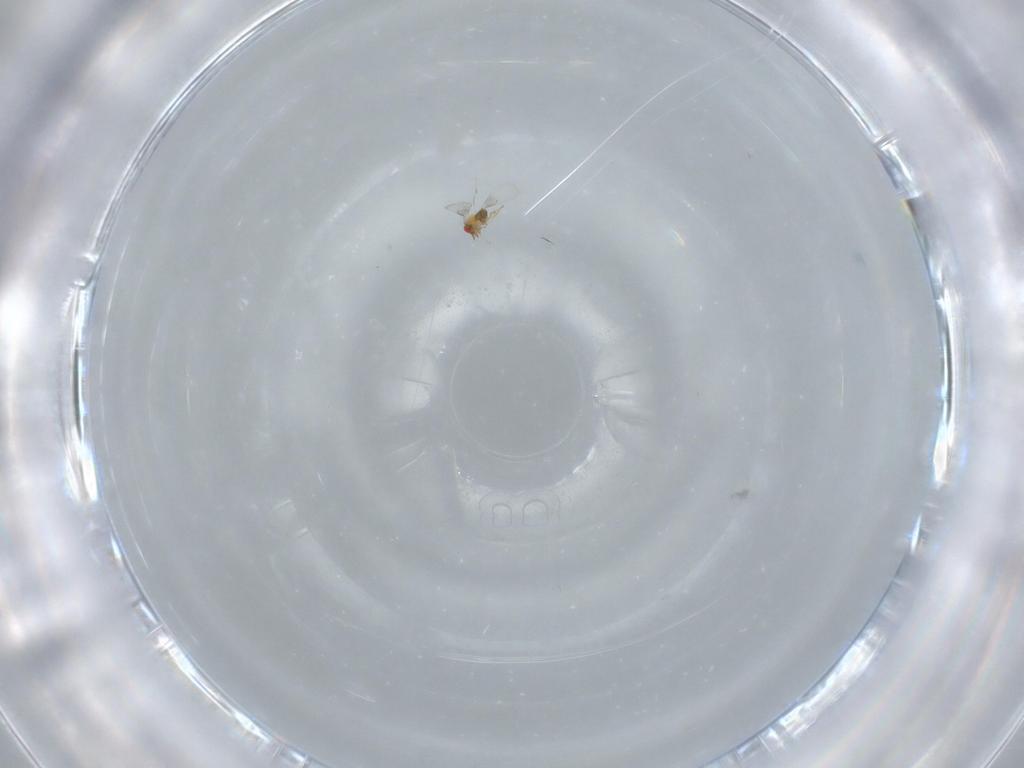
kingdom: Animalia
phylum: Arthropoda
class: Insecta
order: Hymenoptera
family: Trichogrammatidae
